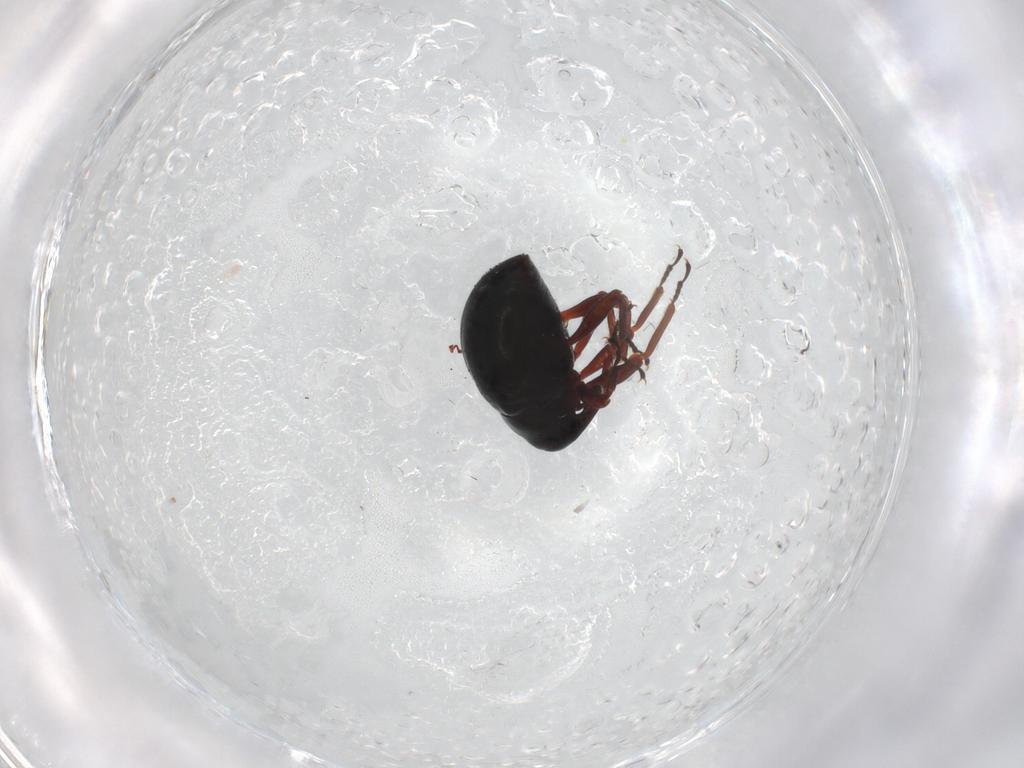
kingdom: Animalia
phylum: Arthropoda
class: Insecta
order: Coleoptera
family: Curculionidae
